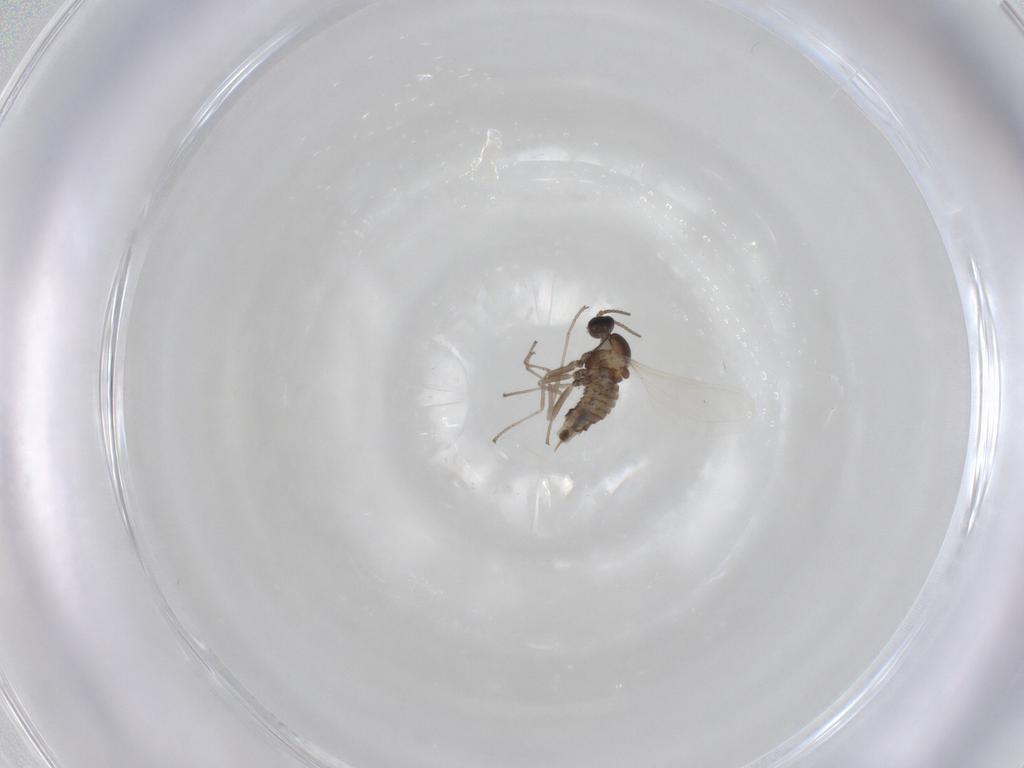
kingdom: Animalia
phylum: Arthropoda
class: Insecta
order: Diptera
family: Cecidomyiidae
